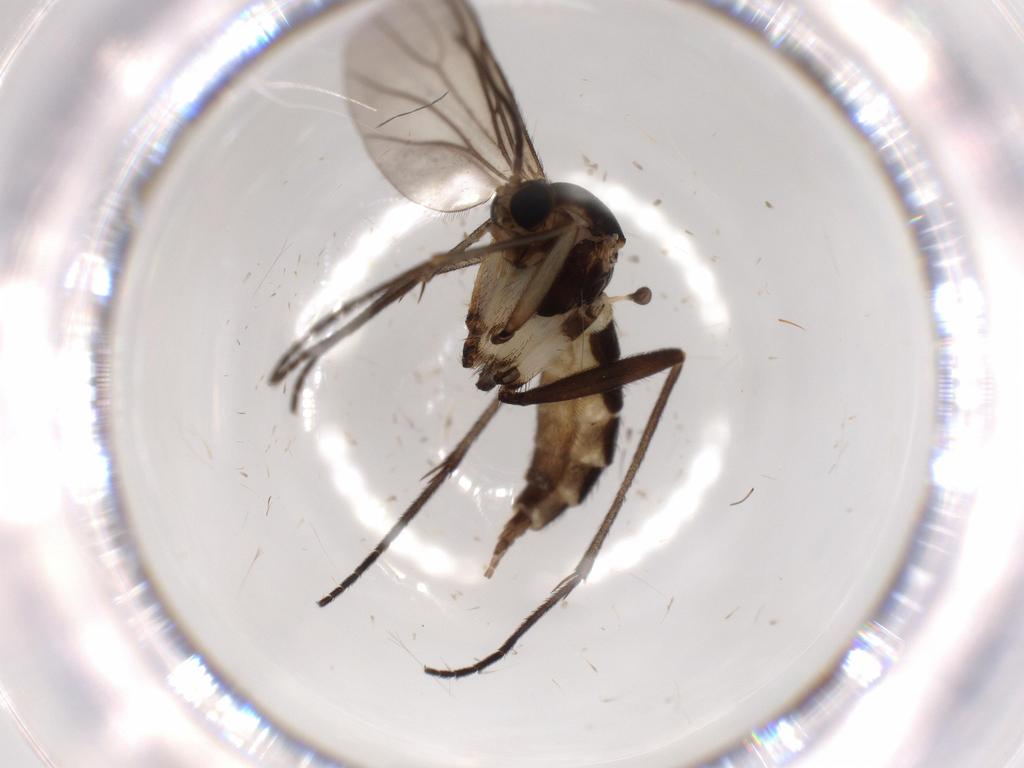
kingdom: Animalia
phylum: Arthropoda
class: Insecta
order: Diptera
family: Sciaridae
